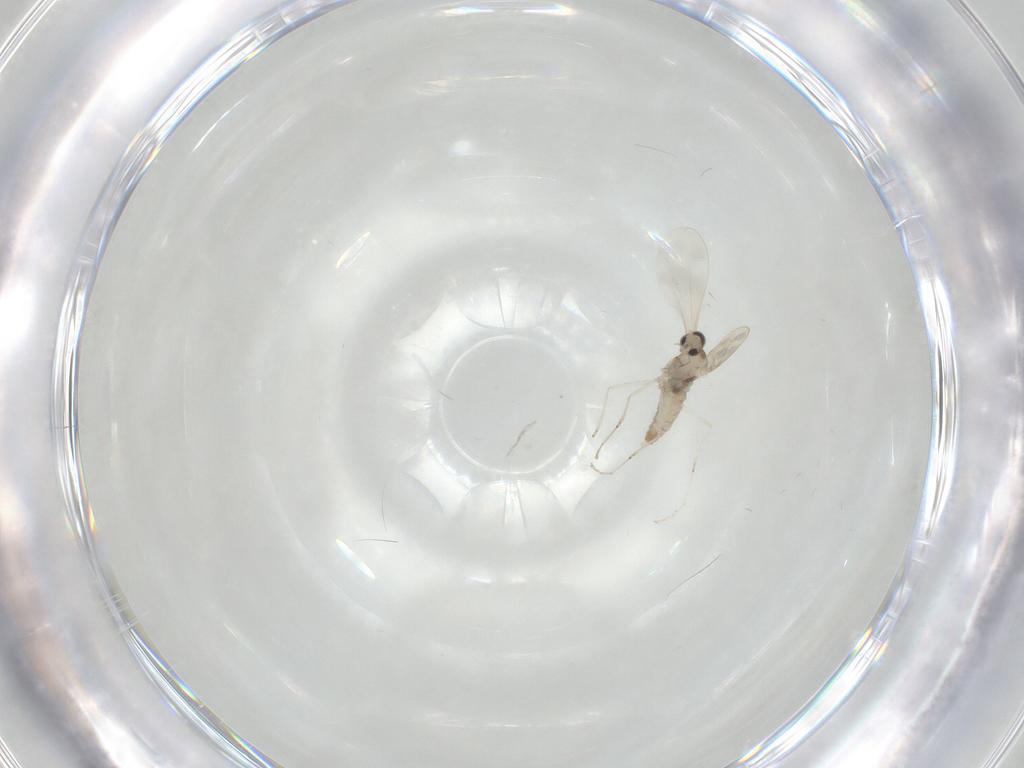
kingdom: Animalia
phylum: Arthropoda
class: Insecta
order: Diptera
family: Cecidomyiidae
